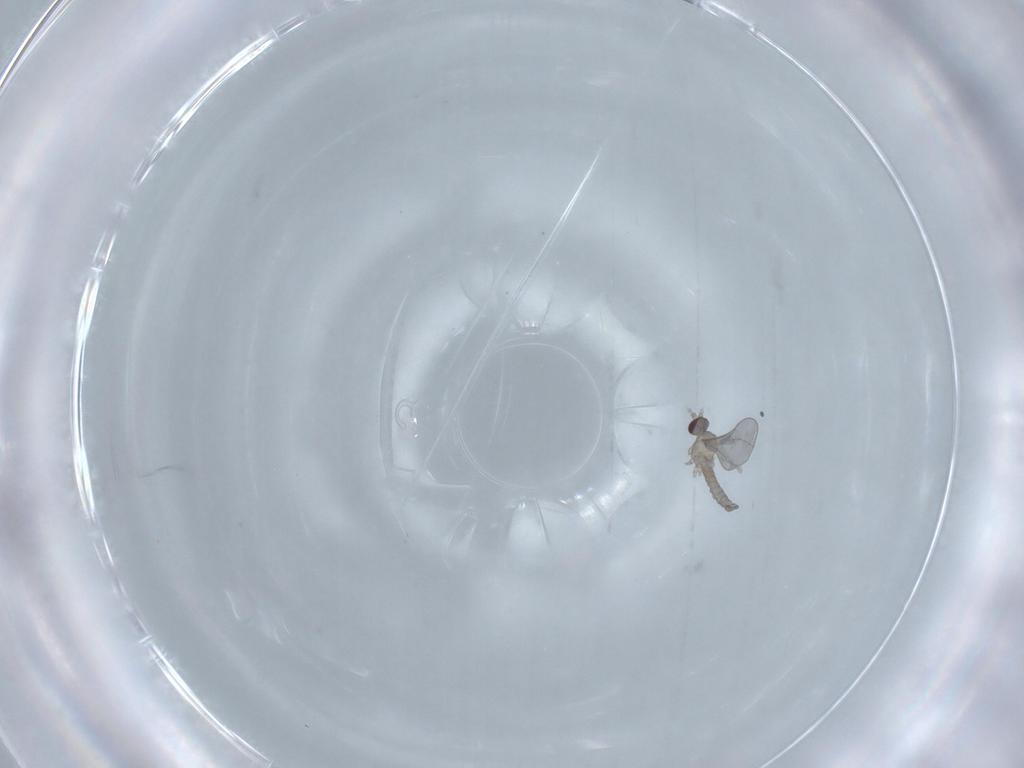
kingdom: Animalia
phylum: Arthropoda
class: Insecta
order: Diptera
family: Cecidomyiidae
